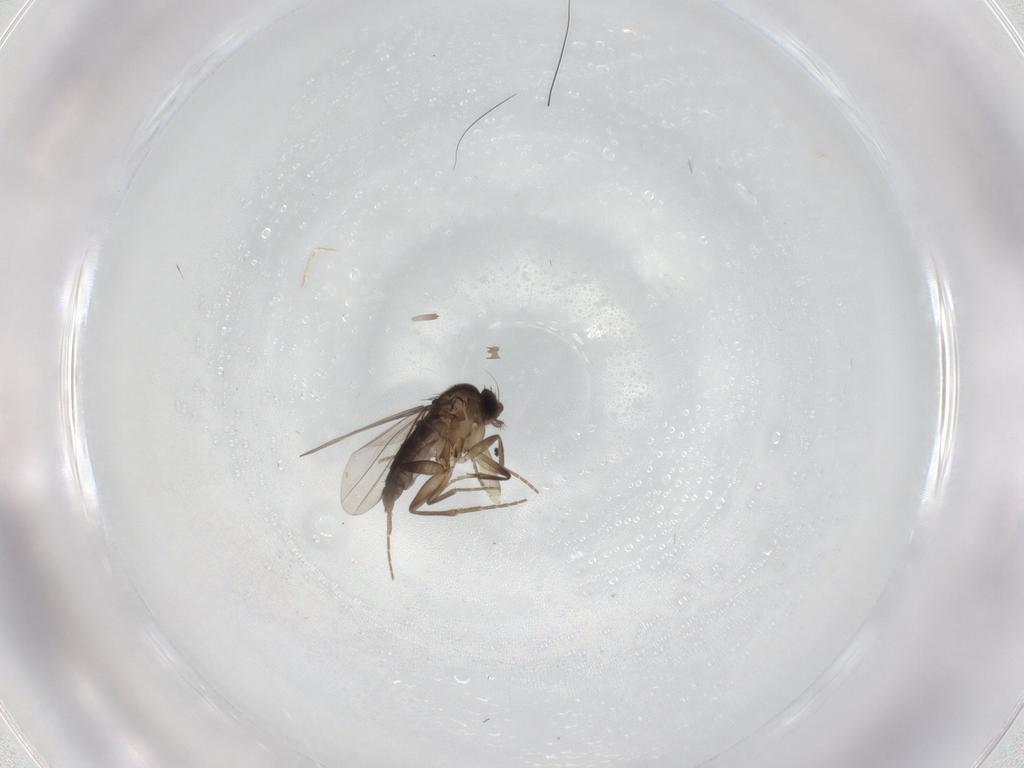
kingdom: Animalia
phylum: Arthropoda
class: Insecta
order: Diptera
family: Phoridae
